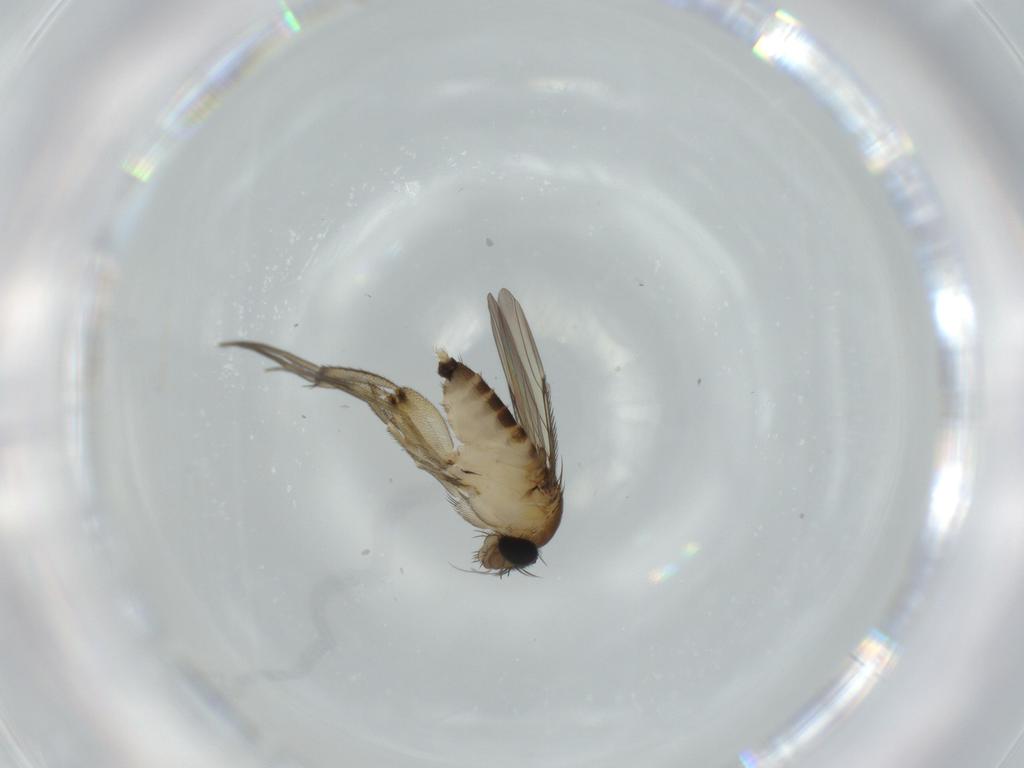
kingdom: Animalia
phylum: Arthropoda
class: Insecta
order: Diptera
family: Phoridae
